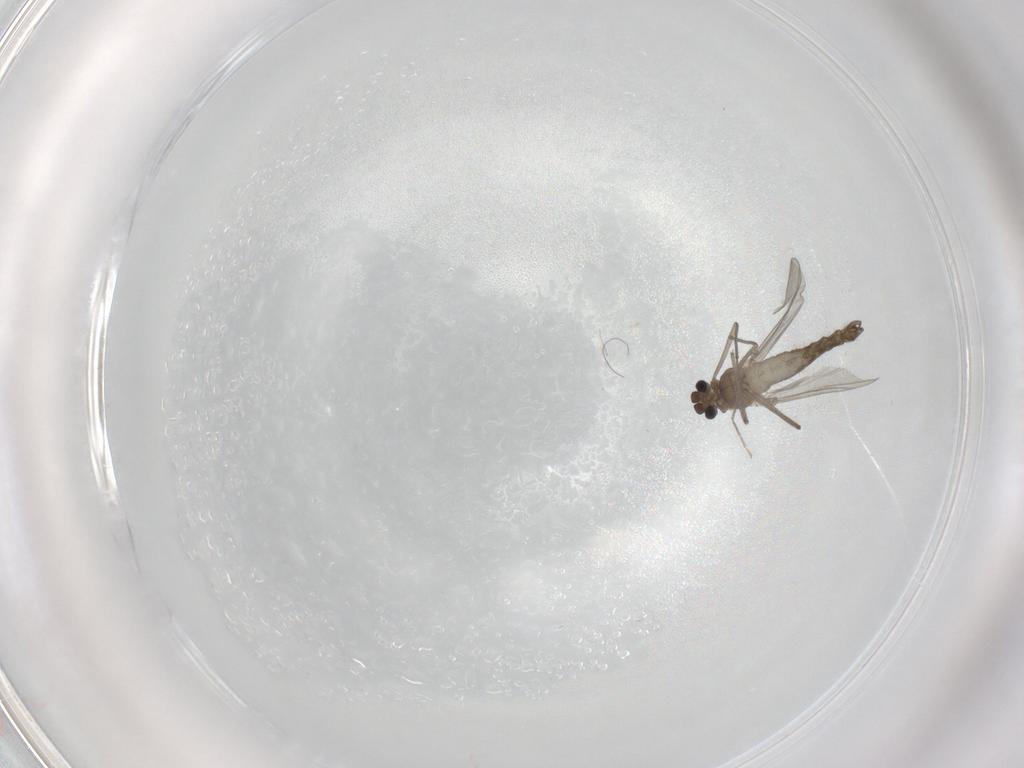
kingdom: Animalia
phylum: Arthropoda
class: Insecta
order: Diptera
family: Chironomidae
